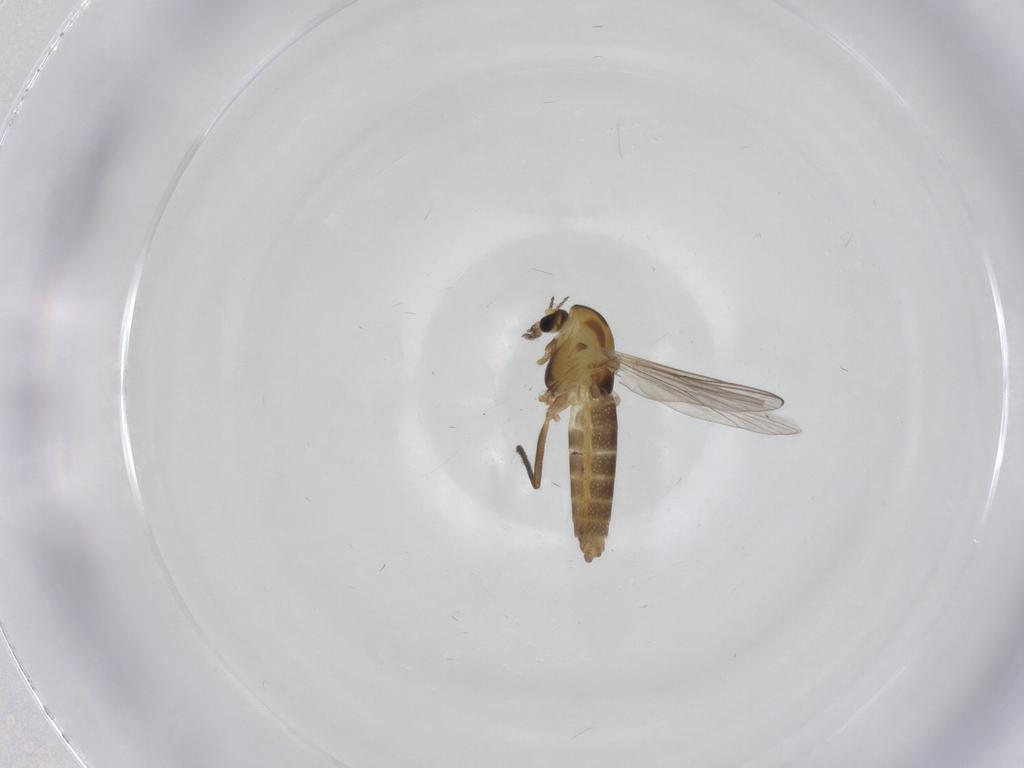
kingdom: Animalia
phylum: Arthropoda
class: Insecta
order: Diptera
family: Chironomidae
